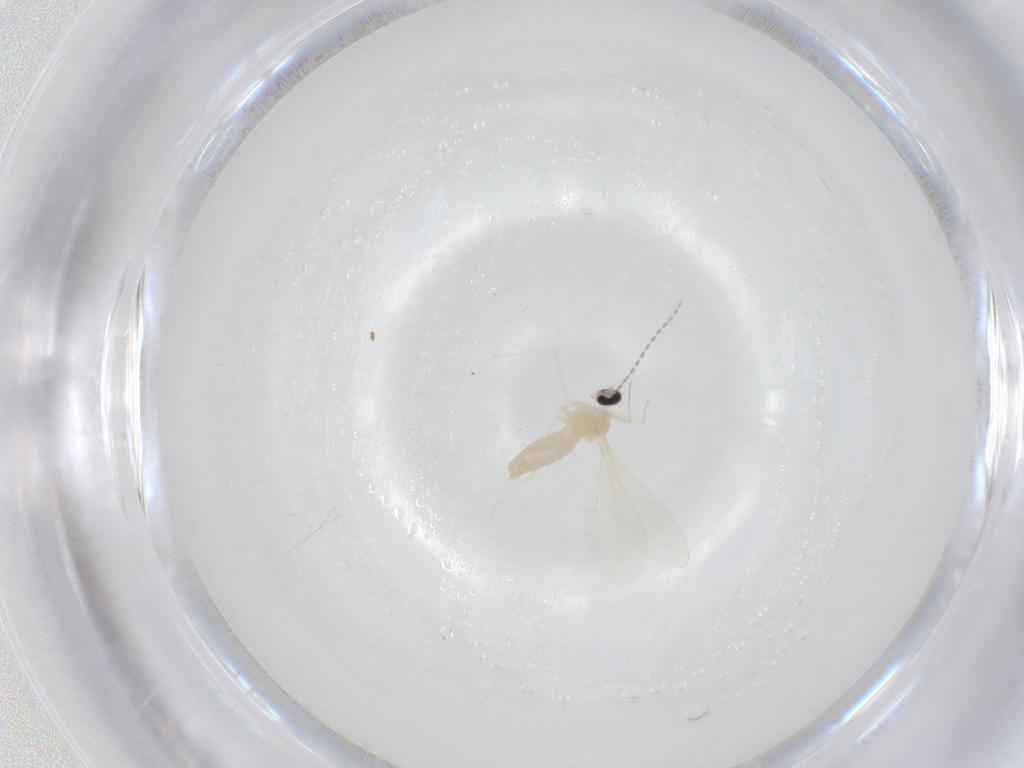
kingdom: Animalia
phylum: Arthropoda
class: Insecta
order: Diptera
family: Cecidomyiidae
